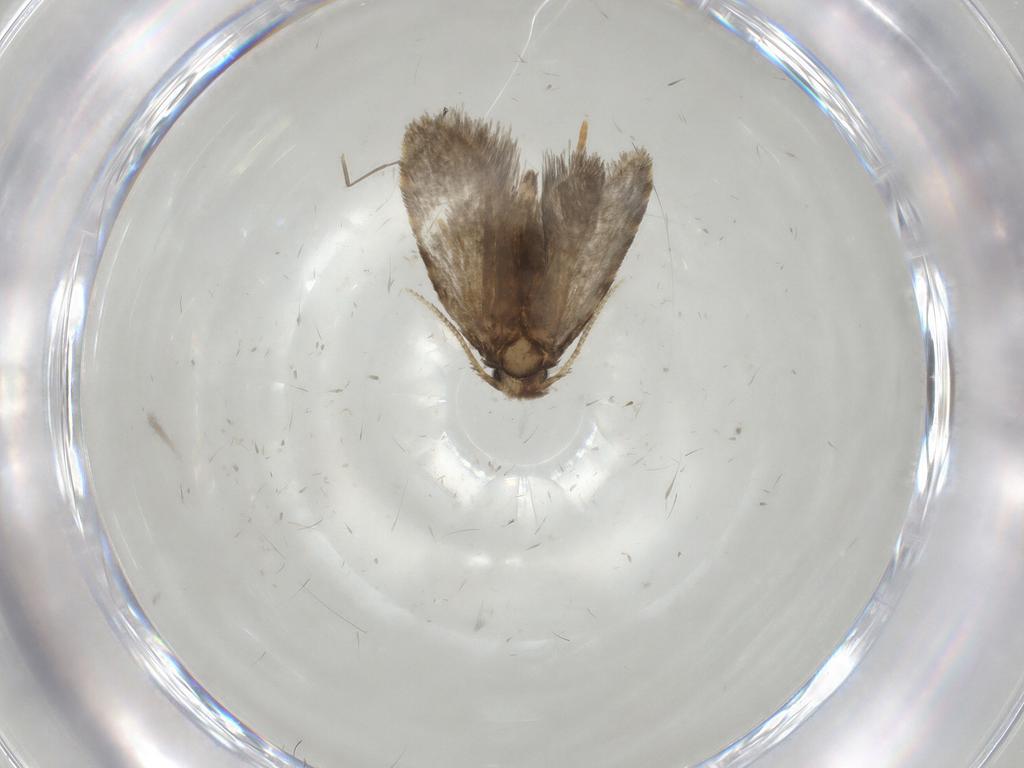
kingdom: Animalia
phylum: Arthropoda
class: Insecta
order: Lepidoptera
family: Psychidae
